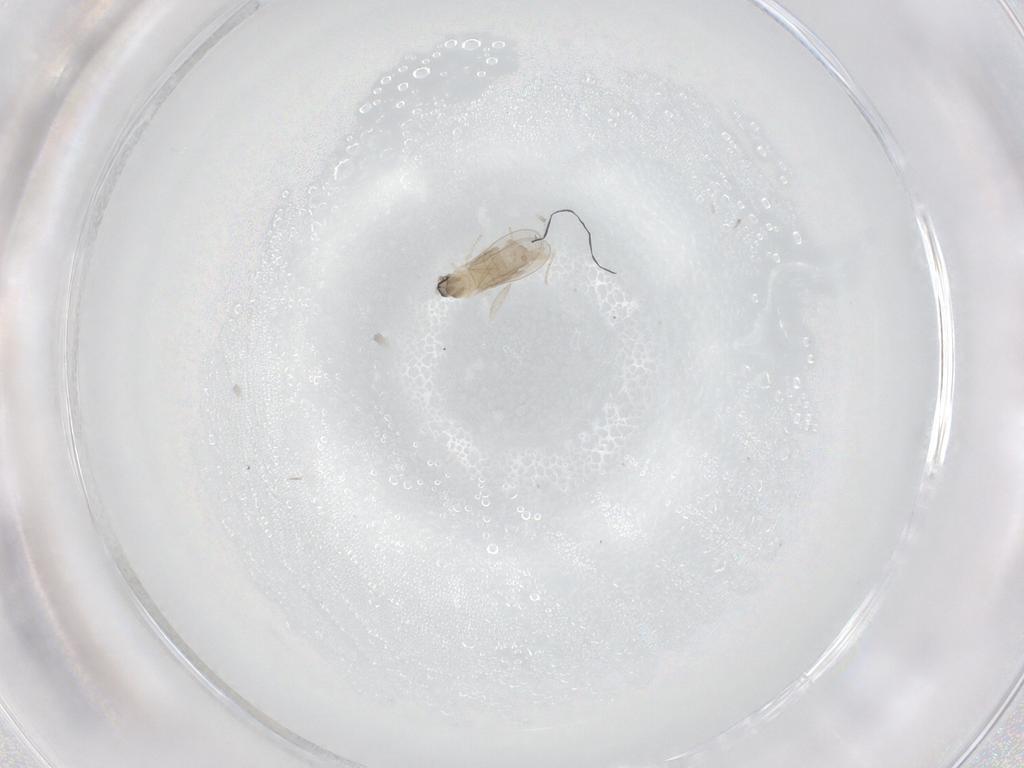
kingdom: Animalia
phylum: Arthropoda
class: Insecta
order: Diptera
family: Cecidomyiidae
